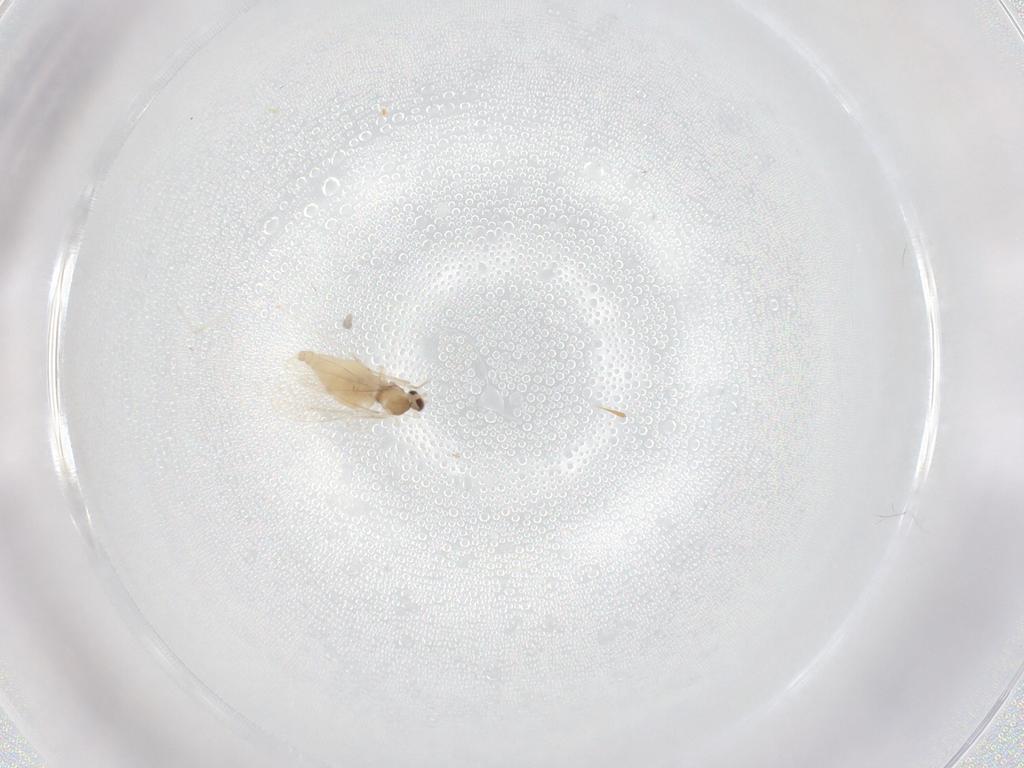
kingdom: Animalia
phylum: Arthropoda
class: Insecta
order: Diptera
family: Cecidomyiidae
